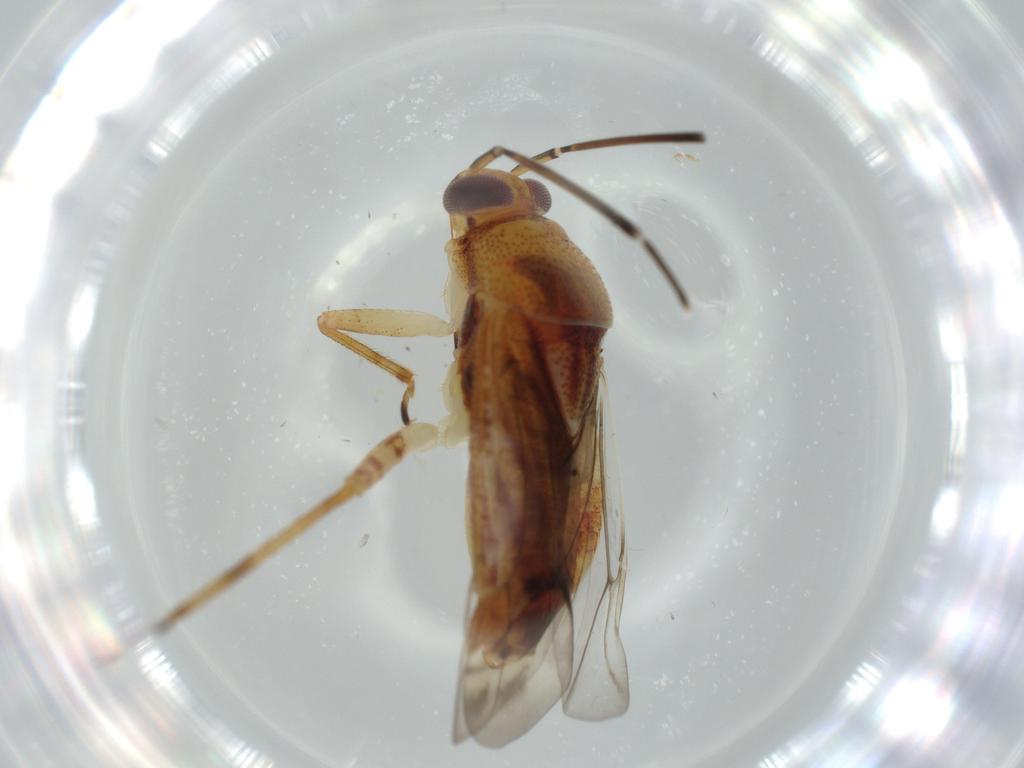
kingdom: Animalia
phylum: Arthropoda
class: Insecta
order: Hemiptera
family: Miridae
